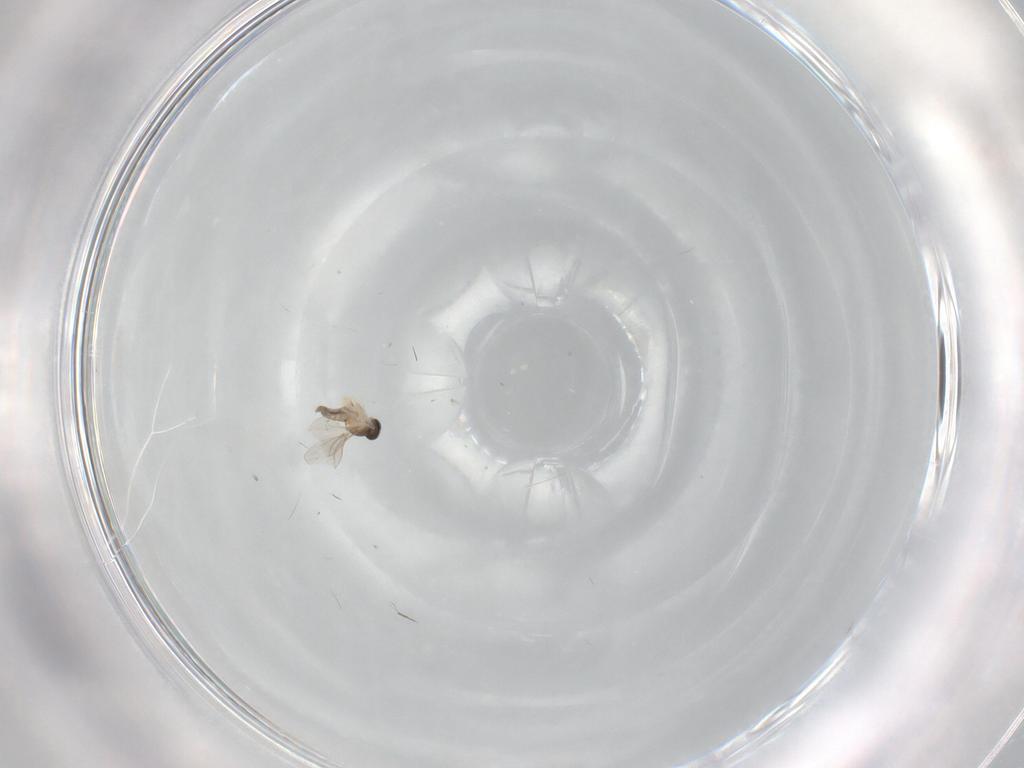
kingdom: Animalia
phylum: Arthropoda
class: Insecta
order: Diptera
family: Cecidomyiidae
